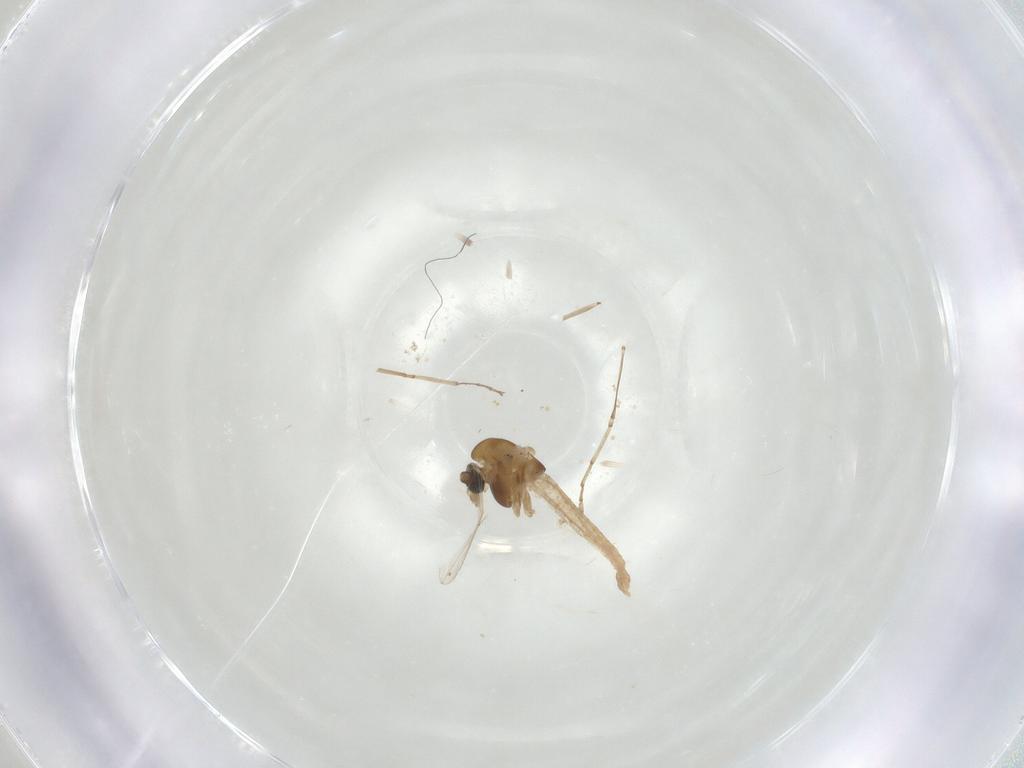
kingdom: Animalia
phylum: Arthropoda
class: Insecta
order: Diptera
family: Chironomidae
